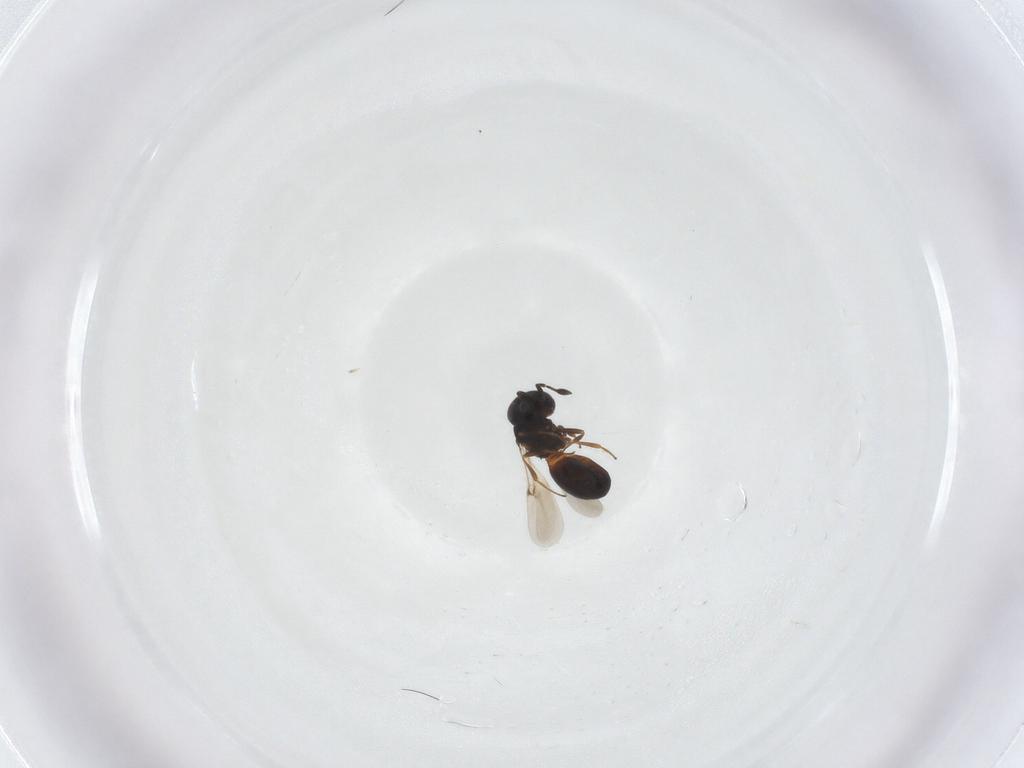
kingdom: Animalia
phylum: Arthropoda
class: Insecta
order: Hymenoptera
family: Scelionidae
